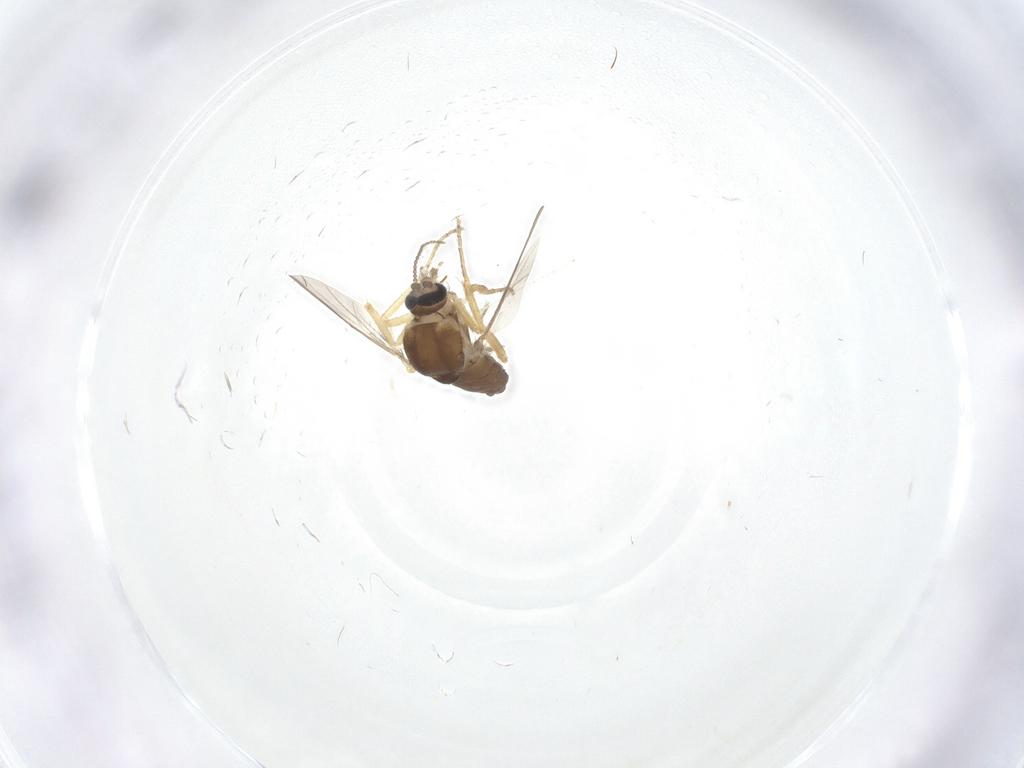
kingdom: Animalia
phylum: Arthropoda
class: Insecta
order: Diptera
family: Ceratopogonidae
